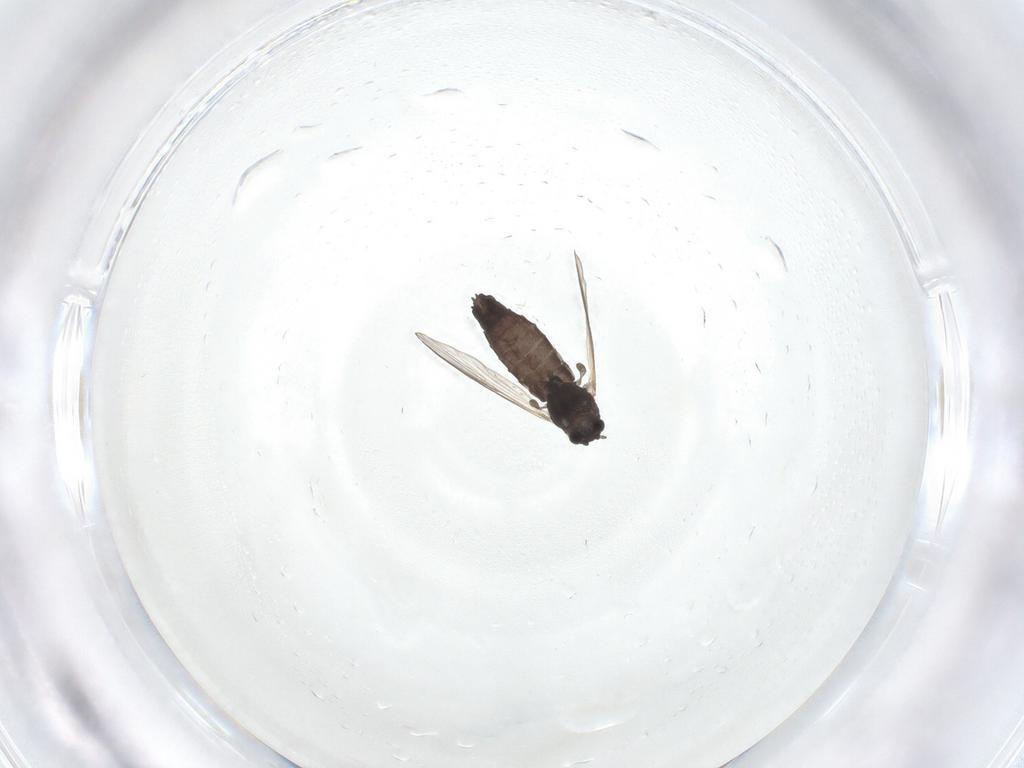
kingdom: Animalia
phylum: Arthropoda
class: Insecta
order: Diptera
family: Chironomidae
